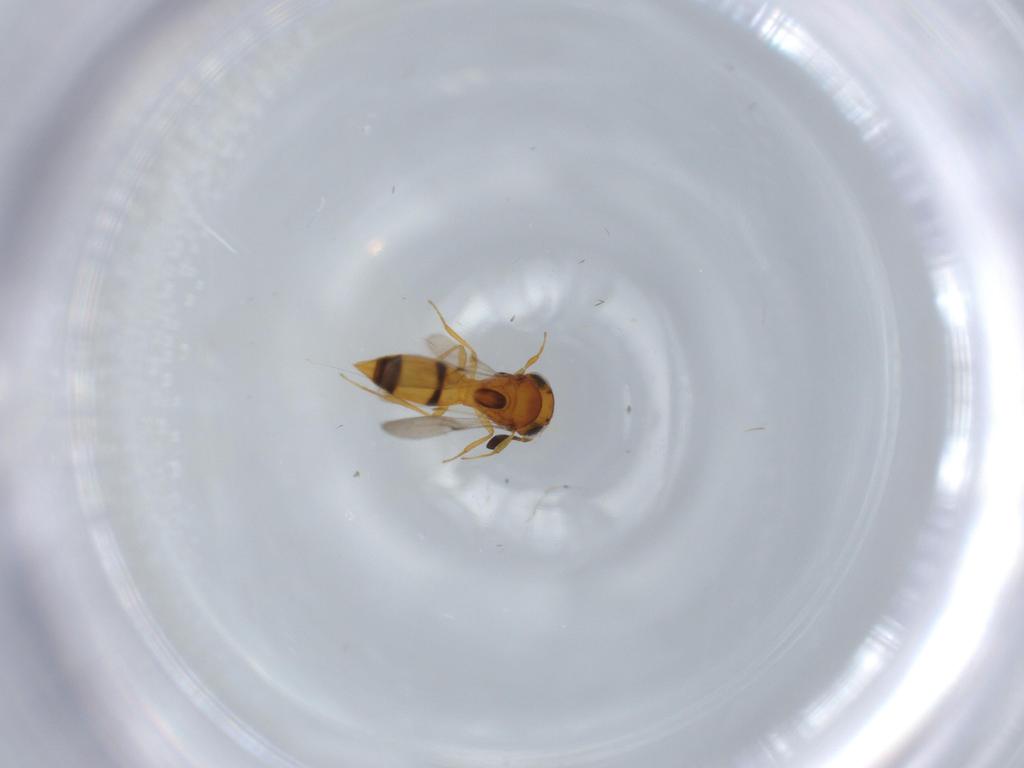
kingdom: Animalia
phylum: Arthropoda
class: Insecta
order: Hymenoptera
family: Scelionidae
